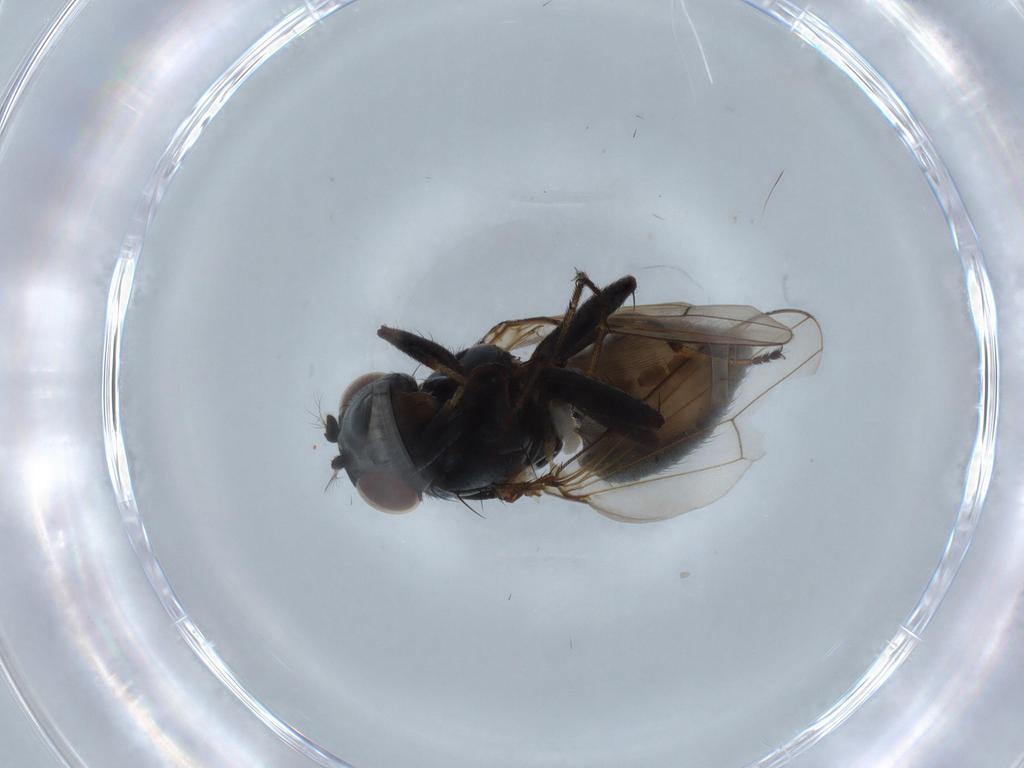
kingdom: Animalia
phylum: Arthropoda
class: Insecta
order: Diptera
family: Ephydridae
